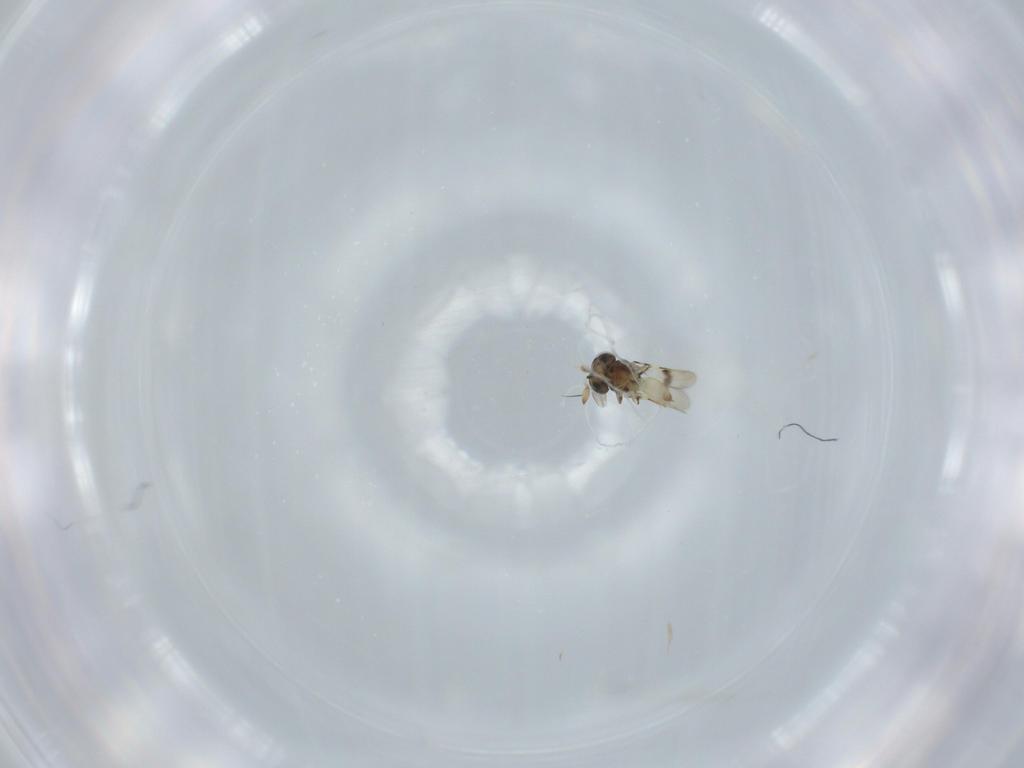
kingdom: Animalia
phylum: Arthropoda
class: Insecta
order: Hymenoptera
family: Scelionidae
